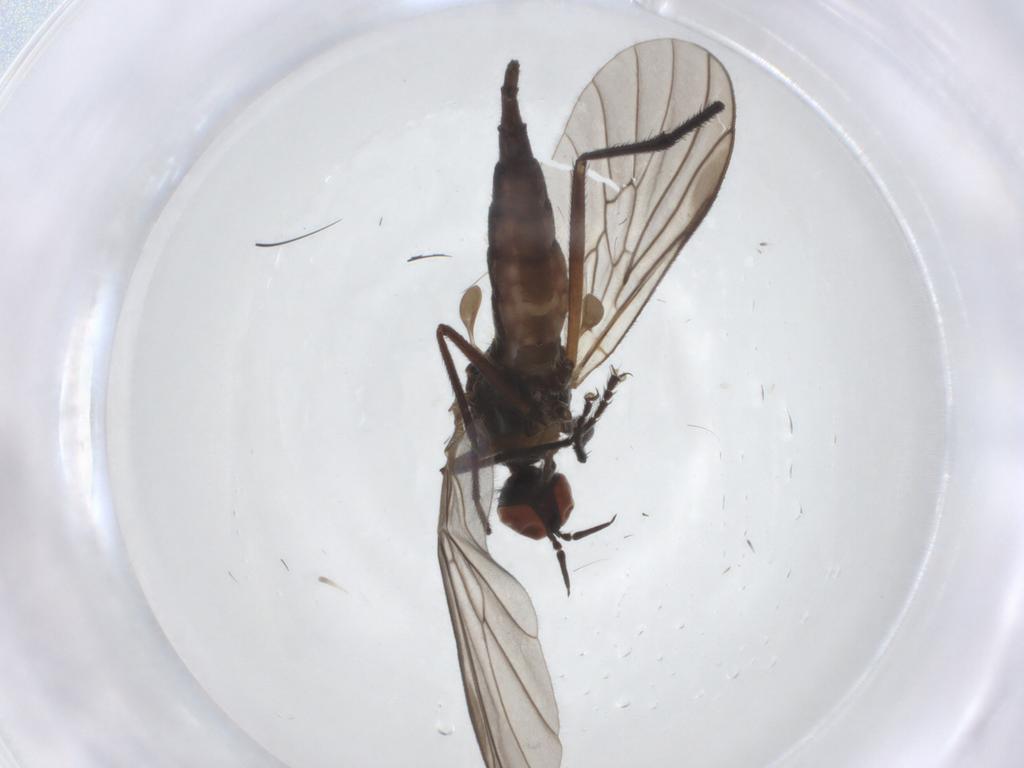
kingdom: Animalia
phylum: Arthropoda
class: Insecta
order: Diptera
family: Empididae
